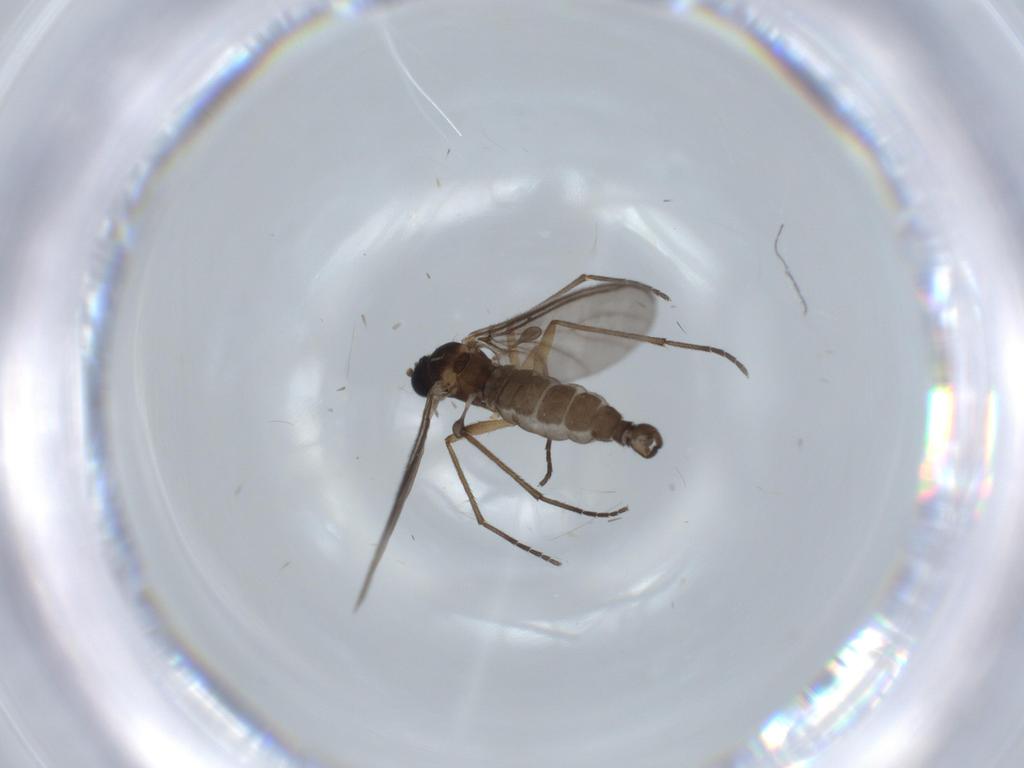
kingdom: Animalia
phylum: Arthropoda
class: Insecta
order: Diptera
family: Sciaridae
